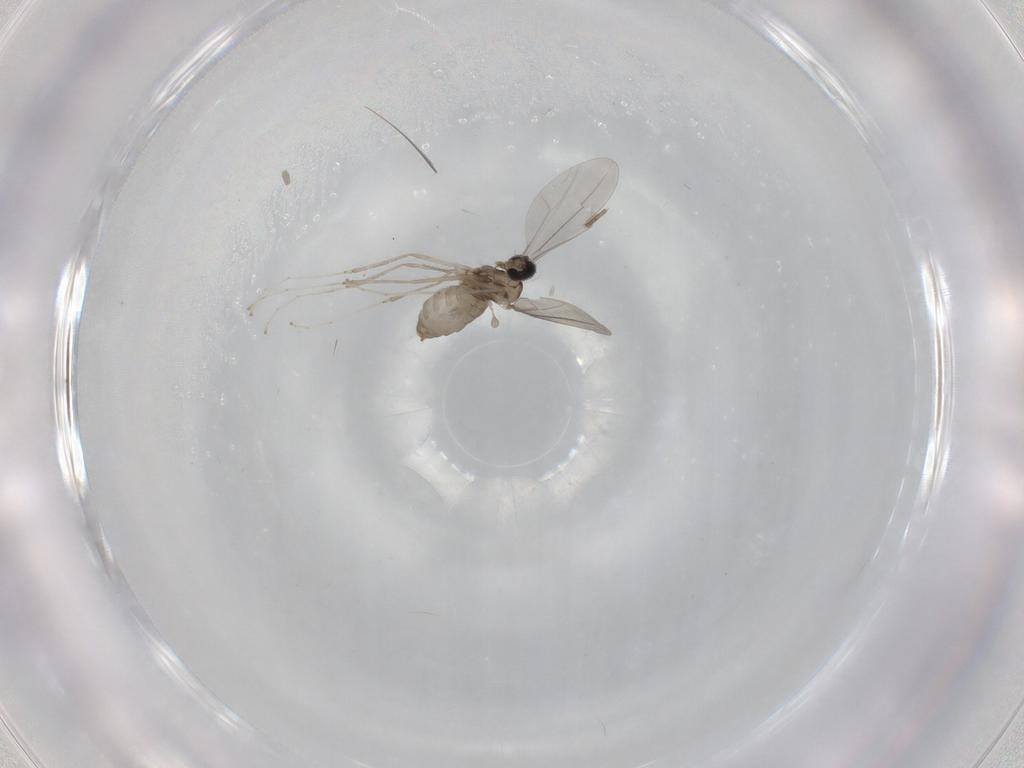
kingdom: Animalia
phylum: Arthropoda
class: Insecta
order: Diptera
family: Mycetophilidae
